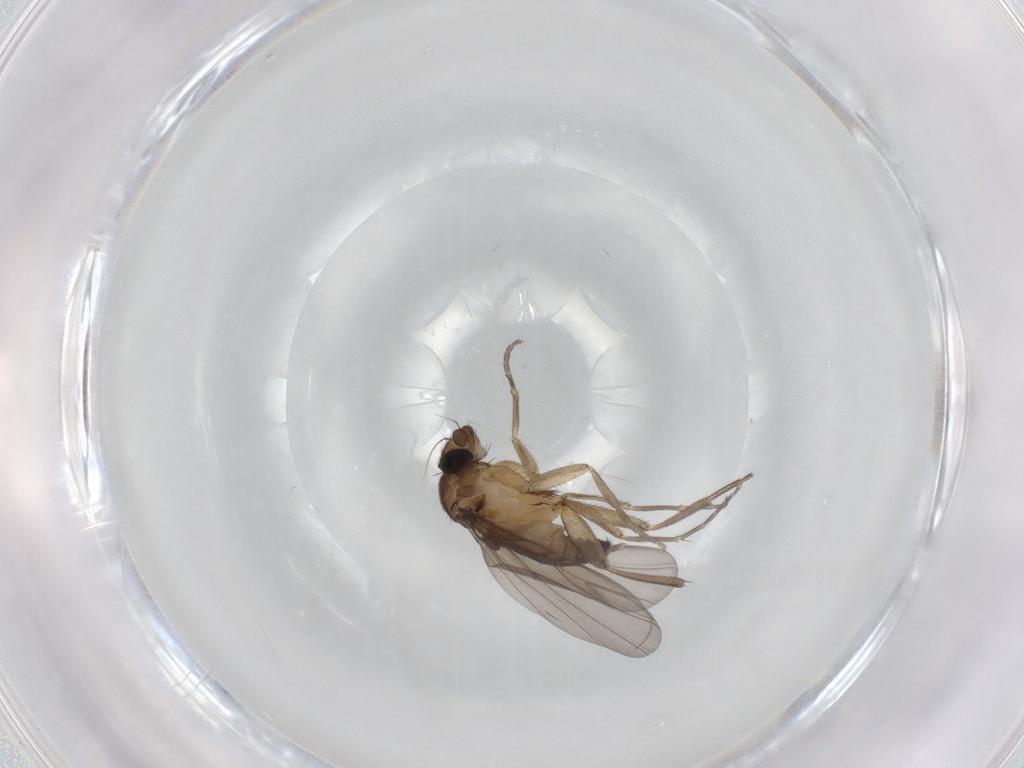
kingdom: Animalia
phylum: Arthropoda
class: Insecta
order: Diptera
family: Phoridae
